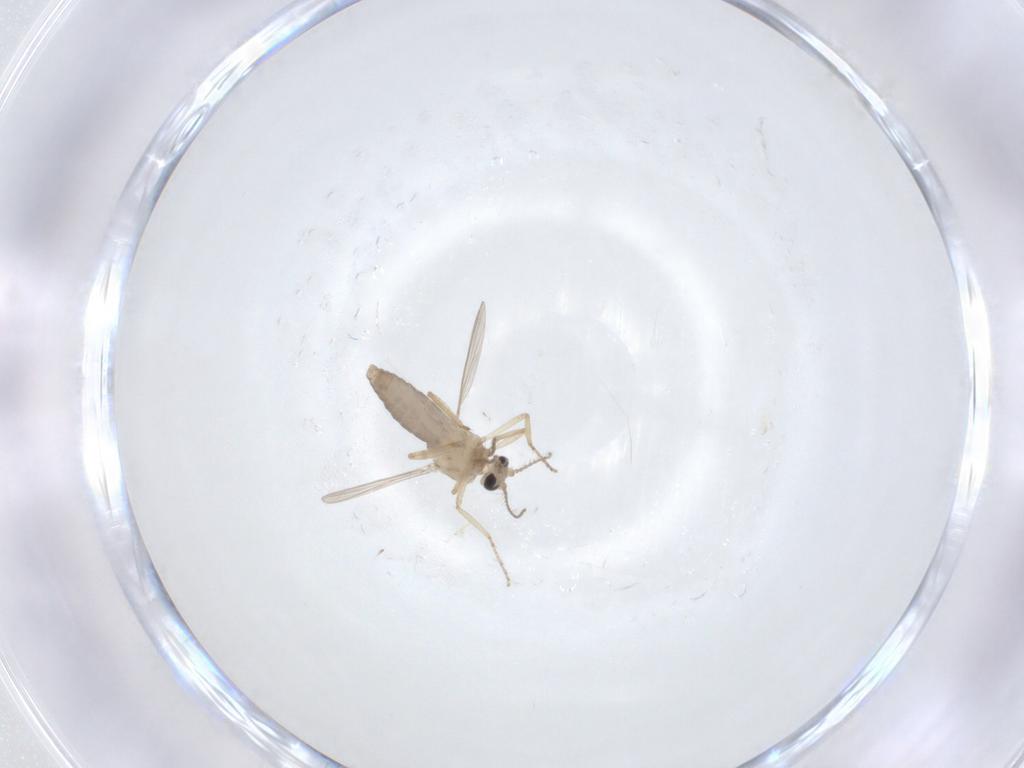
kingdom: Animalia
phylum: Arthropoda
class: Insecta
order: Diptera
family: Ceratopogonidae
